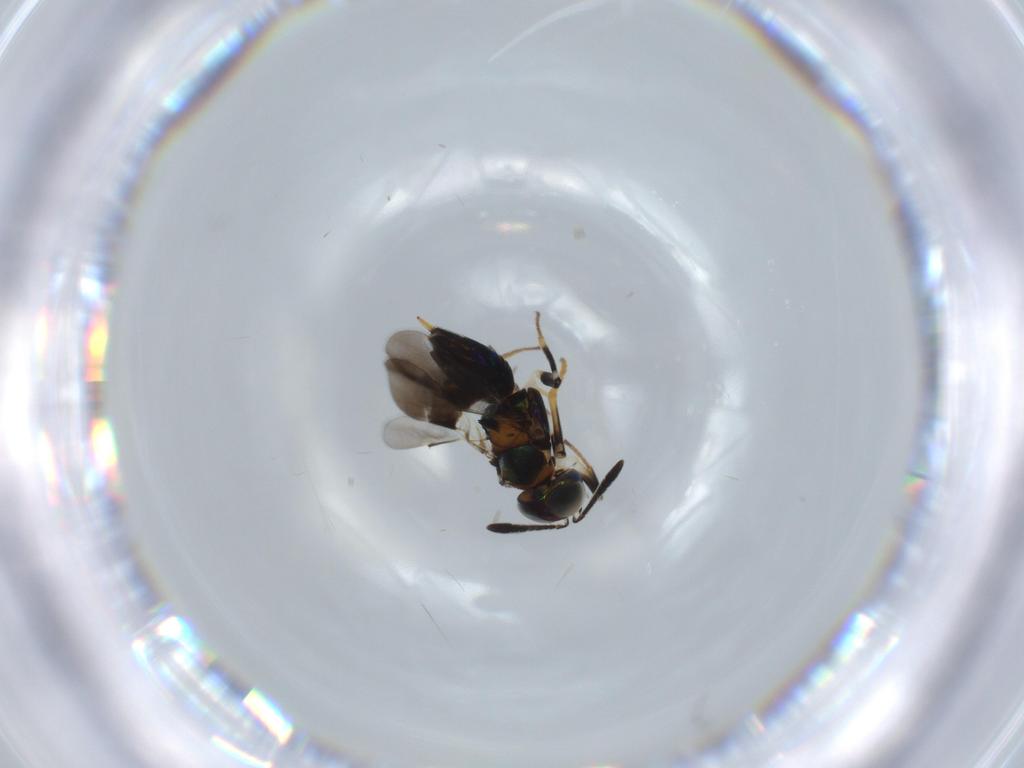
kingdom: Animalia
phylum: Arthropoda
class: Insecta
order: Hymenoptera
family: Encyrtidae
